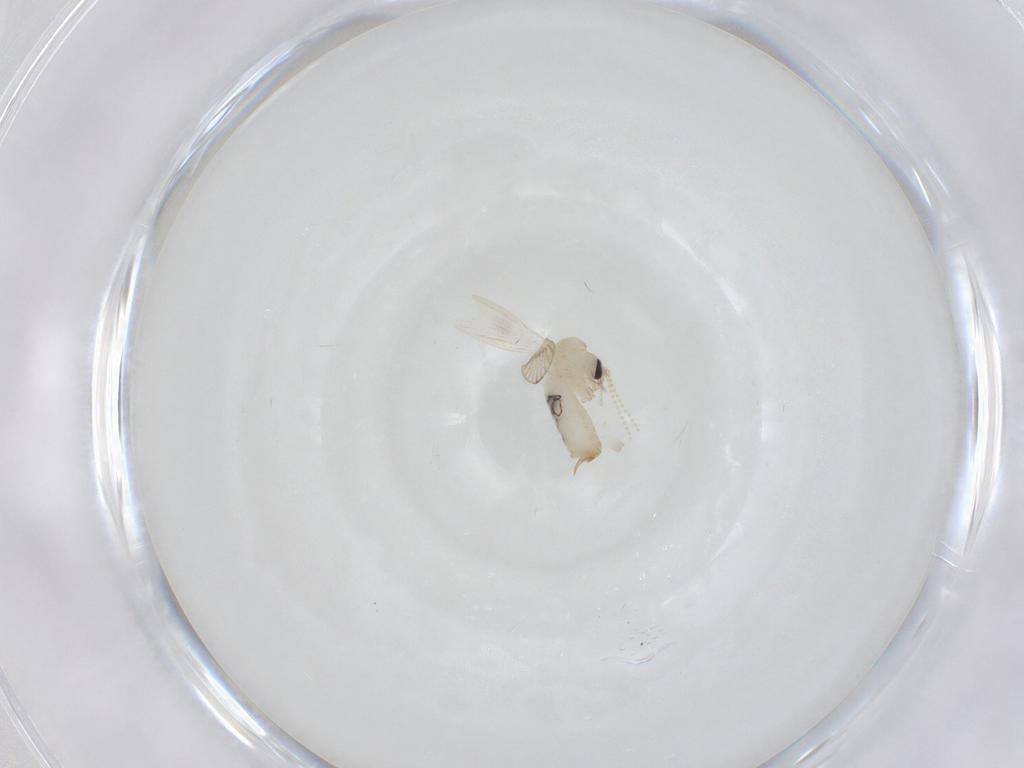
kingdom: Animalia
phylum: Arthropoda
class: Insecta
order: Diptera
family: Psychodidae
